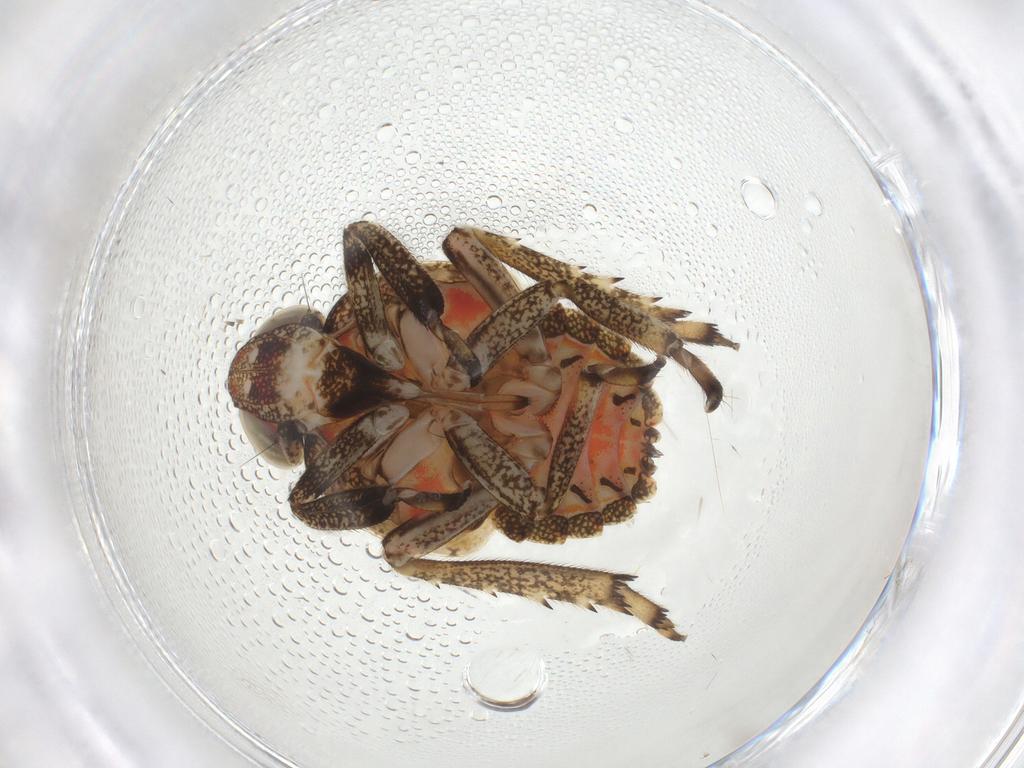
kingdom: Animalia
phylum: Arthropoda
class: Insecta
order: Hemiptera
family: Issidae
